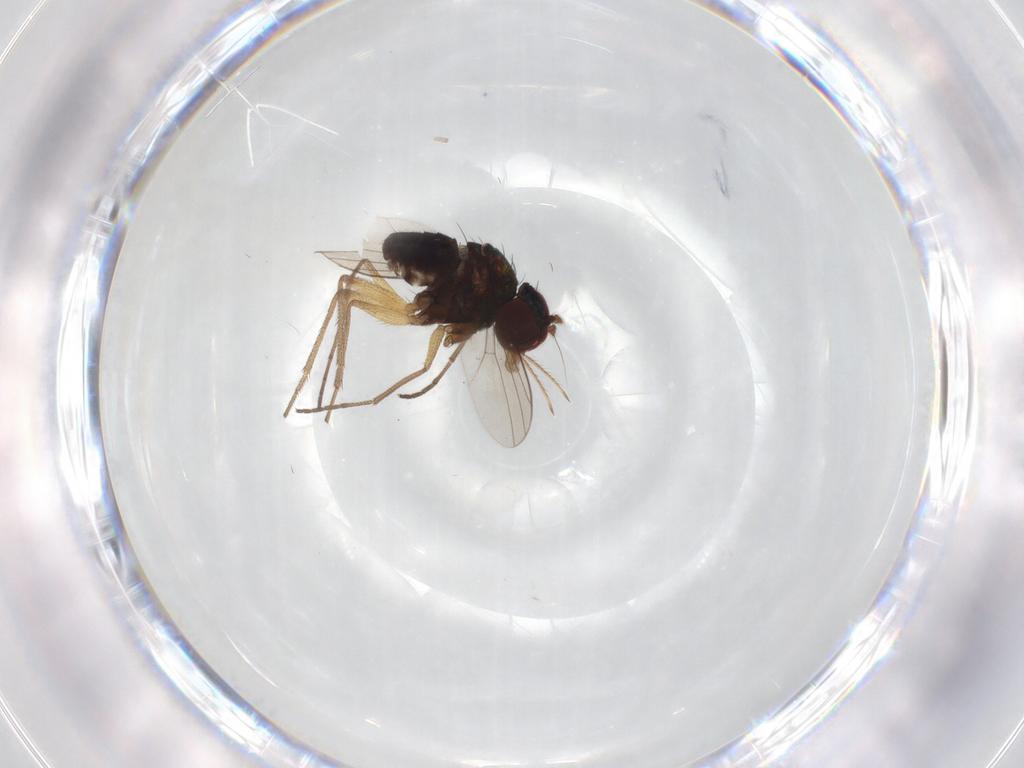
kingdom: Animalia
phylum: Arthropoda
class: Insecta
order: Diptera
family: Dolichopodidae
